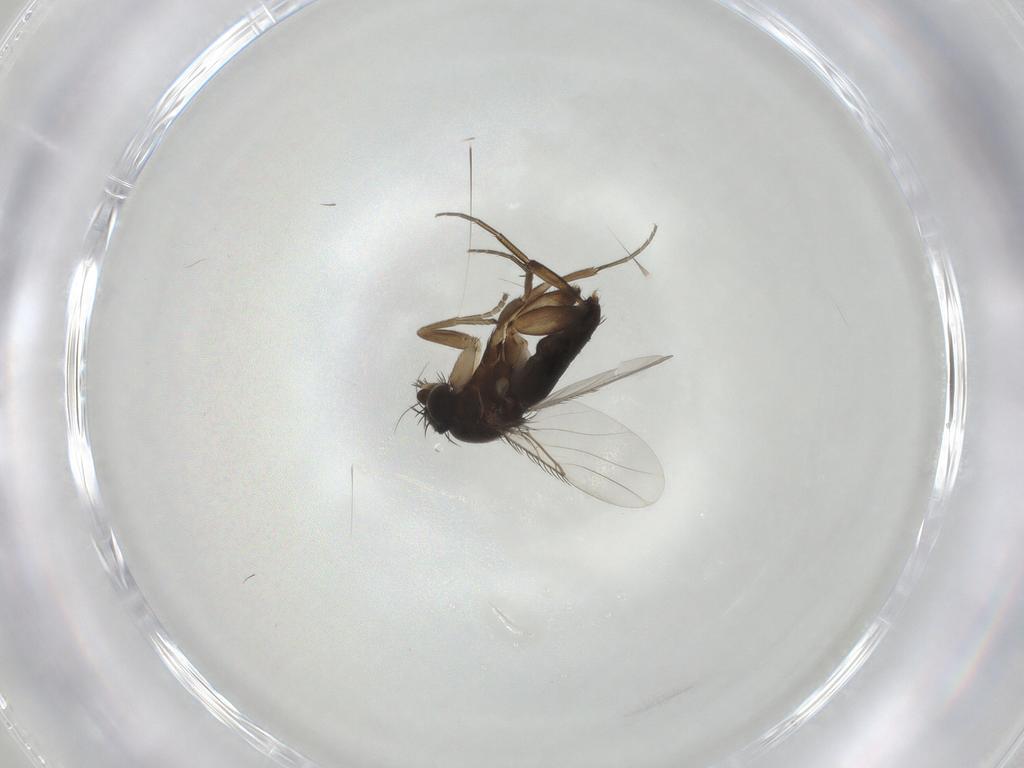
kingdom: Animalia
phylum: Arthropoda
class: Insecta
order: Diptera
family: Phoridae
